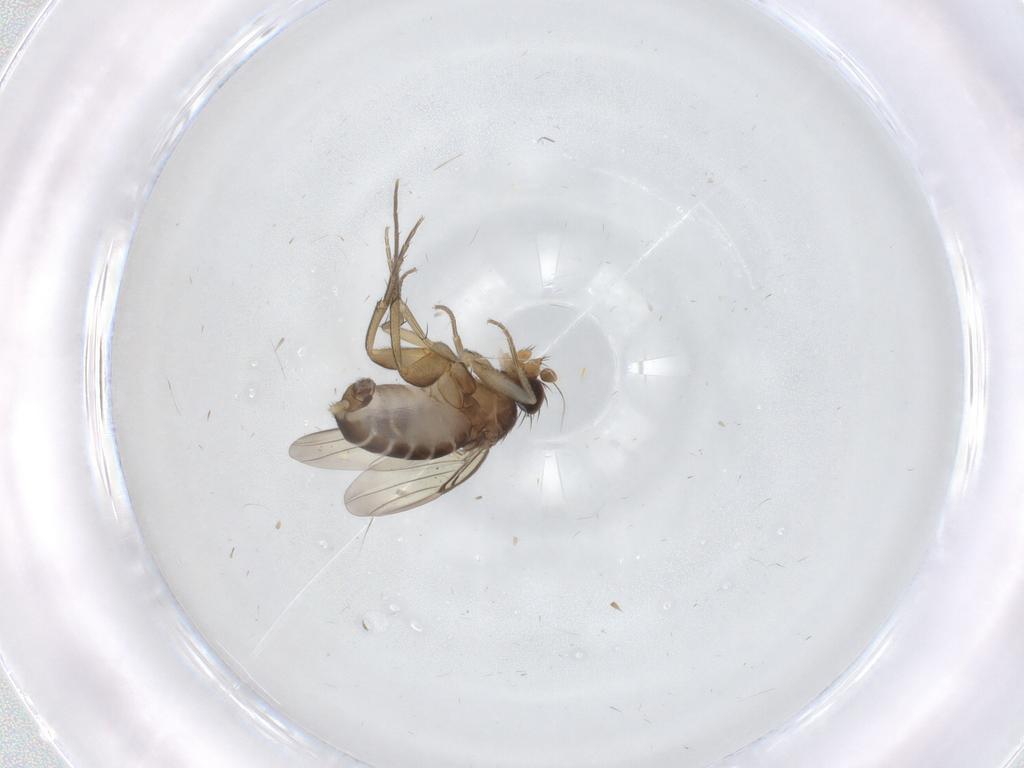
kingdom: Animalia
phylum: Arthropoda
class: Insecta
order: Diptera
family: Phoridae
